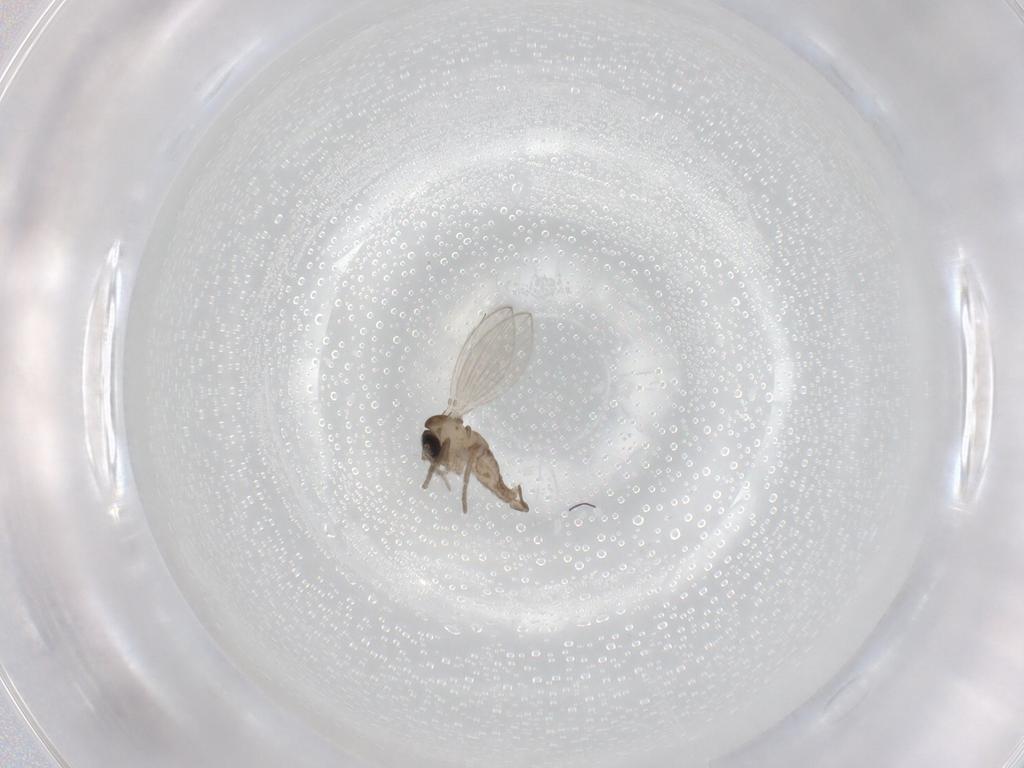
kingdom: Animalia
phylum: Arthropoda
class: Insecta
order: Diptera
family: Psychodidae
